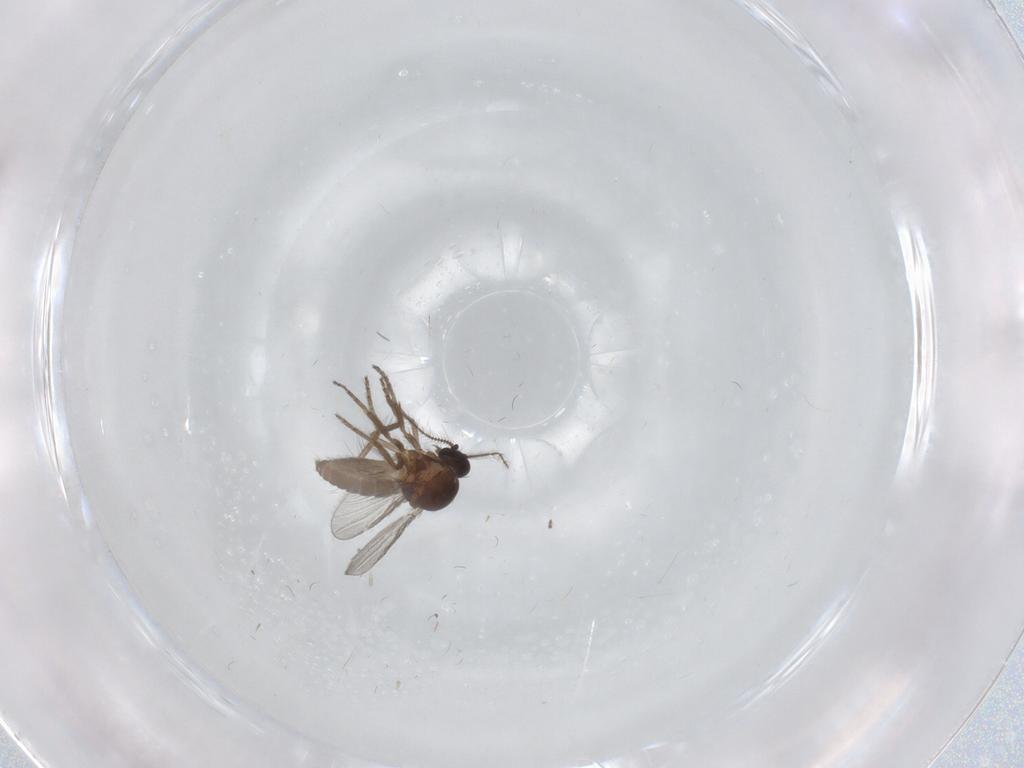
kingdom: Animalia
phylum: Arthropoda
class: Insecta
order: Diptera
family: Ceratopogonidae
